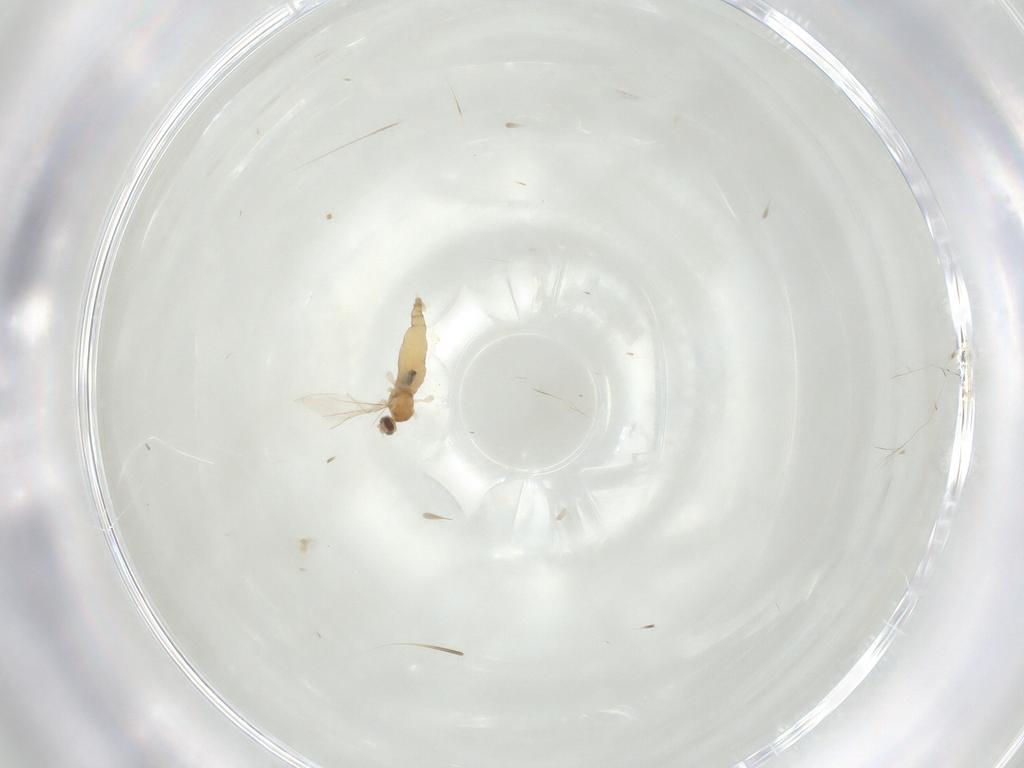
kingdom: Animalia
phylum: Arthropoda
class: Insecta
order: Diptera
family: Cecidomyiidae
